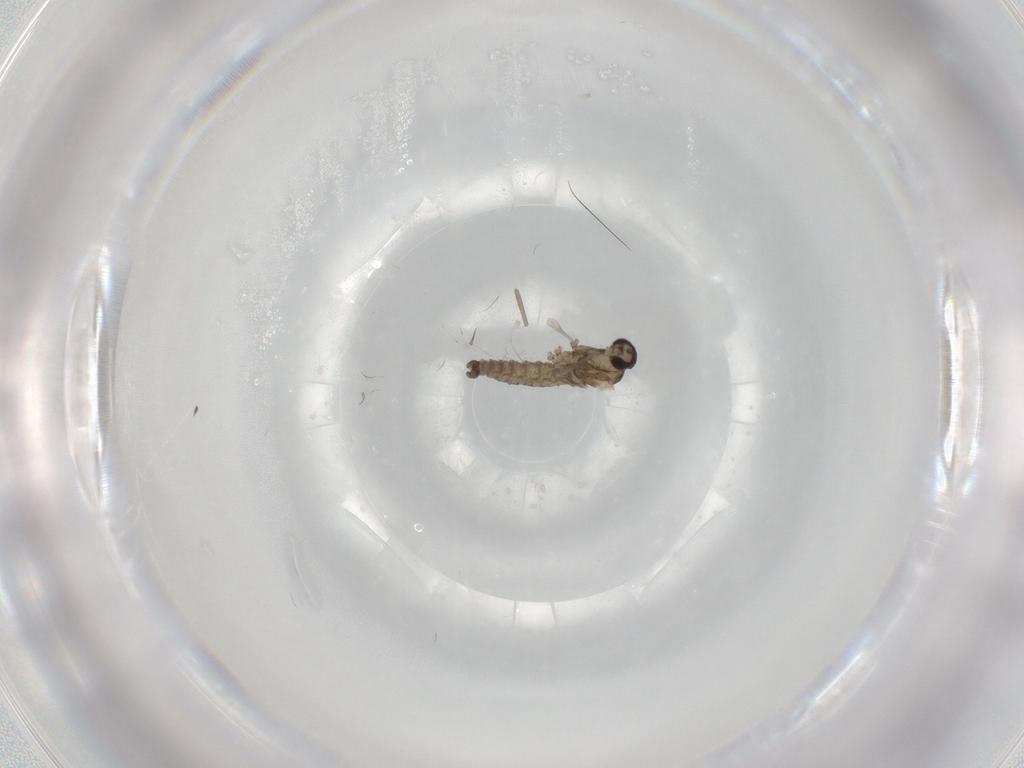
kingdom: Animalia
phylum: Arthropoda
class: Insecta
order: Diptera
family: Cecidomyiidae
